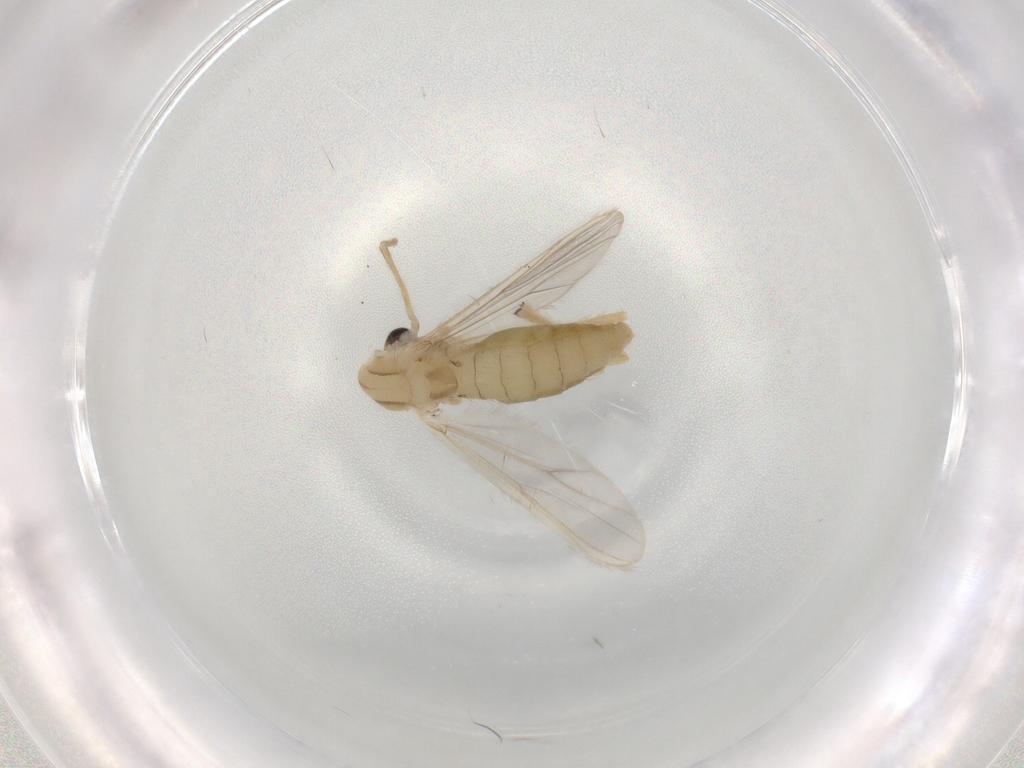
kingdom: Animalia
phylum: Arthropoda
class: Insecta
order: Diptera
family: Chironomidae
